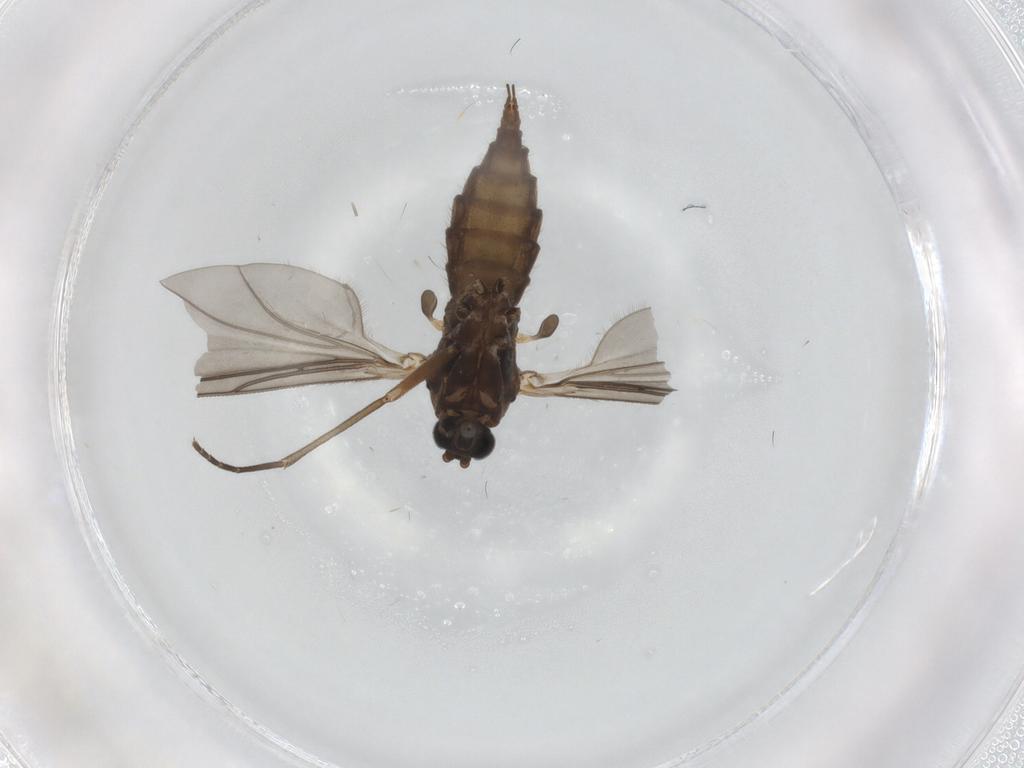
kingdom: Animalia
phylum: Arthropoda
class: Insecta
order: Diptera
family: Sciaridae
